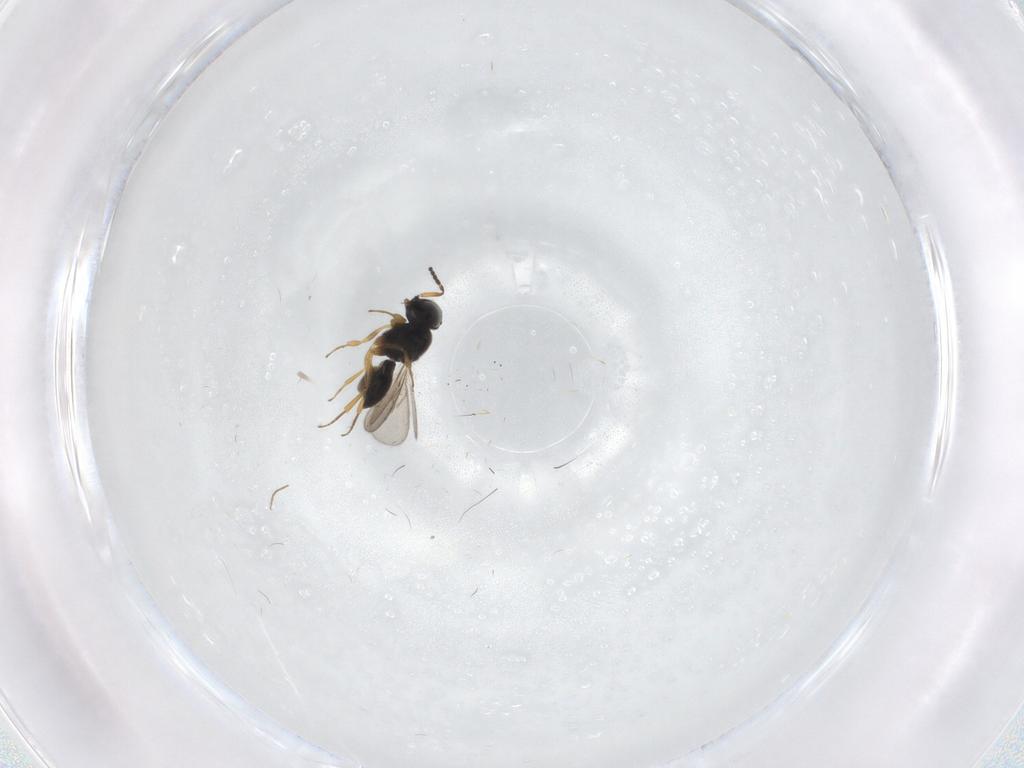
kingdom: Animalia
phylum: Arthropoda
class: Insecta
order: Hymenoptera
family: Scelionidae
